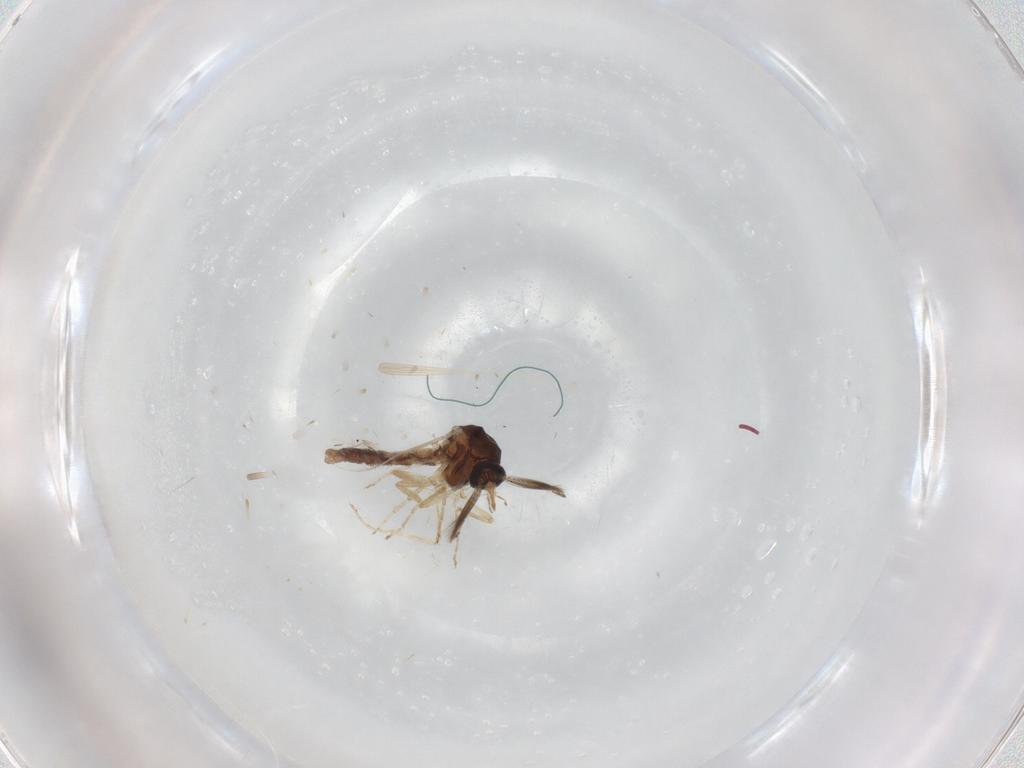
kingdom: Animalia
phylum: Arthropoda
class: Insecta
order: Diptera
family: Ceratopogonidae
